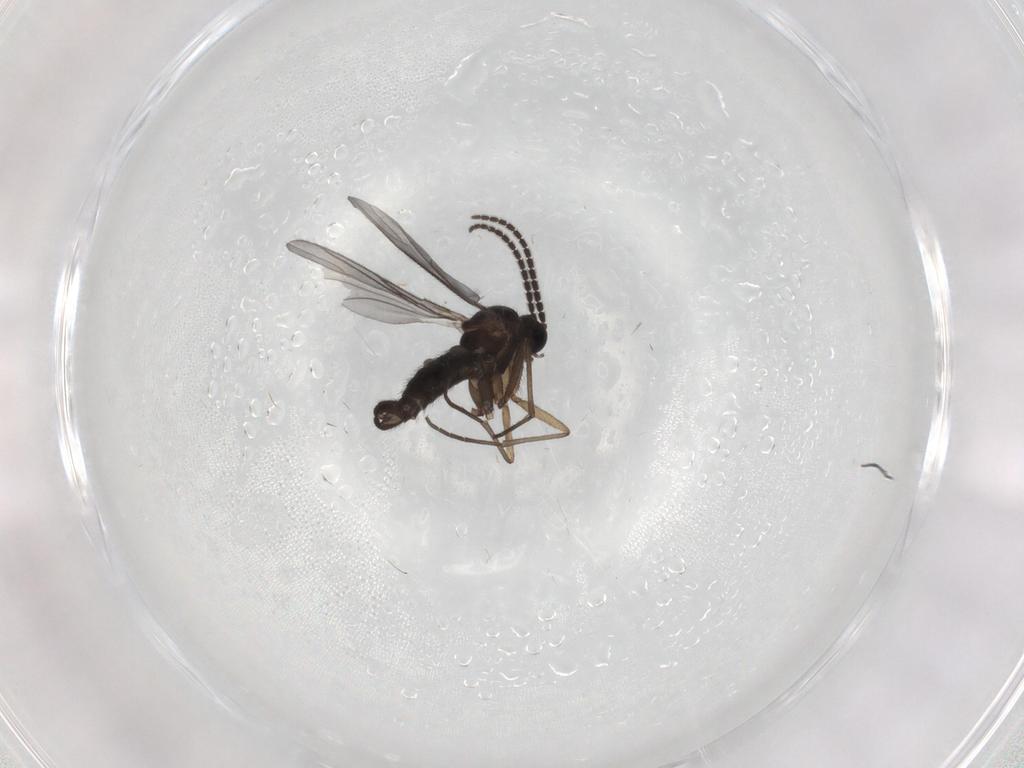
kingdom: Animalia
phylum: Arthropoda
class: Insecta
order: Diptera
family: Sciaridae
